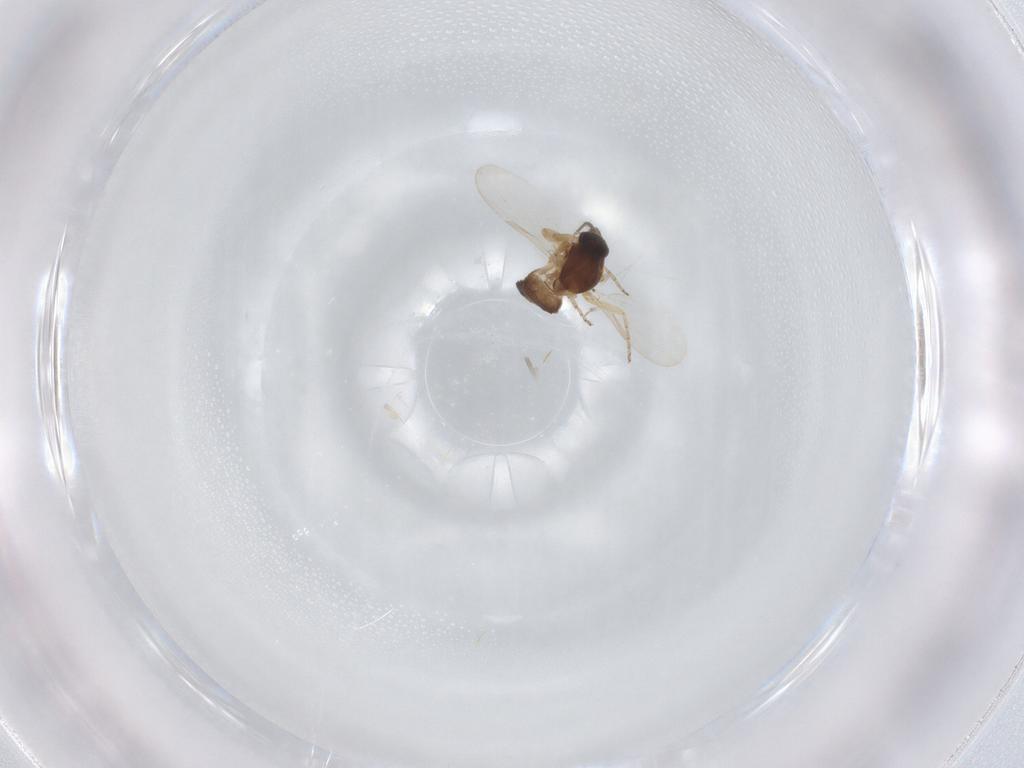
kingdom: Animalia
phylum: Arthropoda
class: Insecta
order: Diptera
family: Ceratopogonidae
